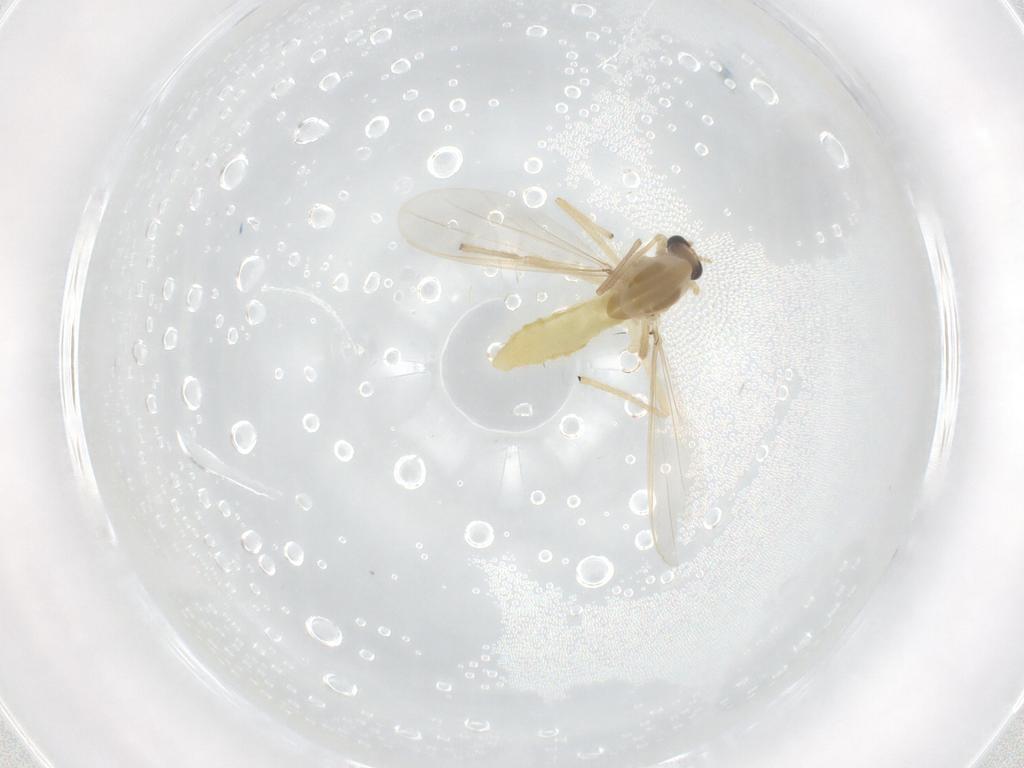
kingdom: Animalia
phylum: Arthropoda
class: Insecta
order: Diptera
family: Chironomidae
